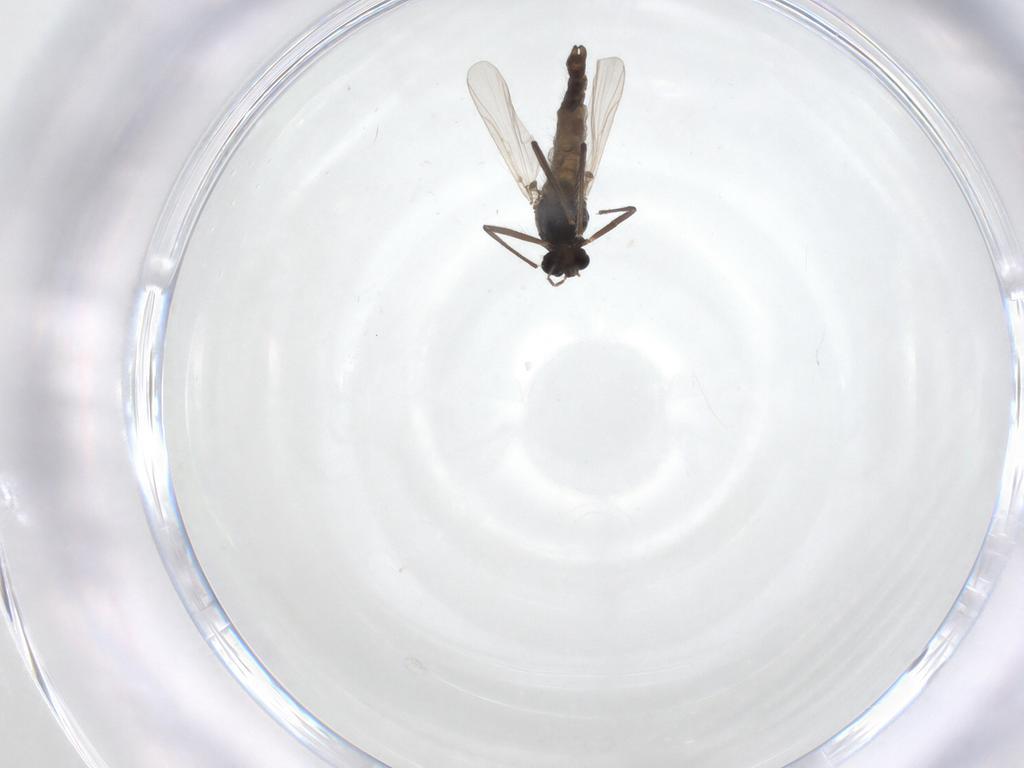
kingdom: Animalia
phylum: Arthropoda
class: Insecta
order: Diptera
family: Chironomidae
